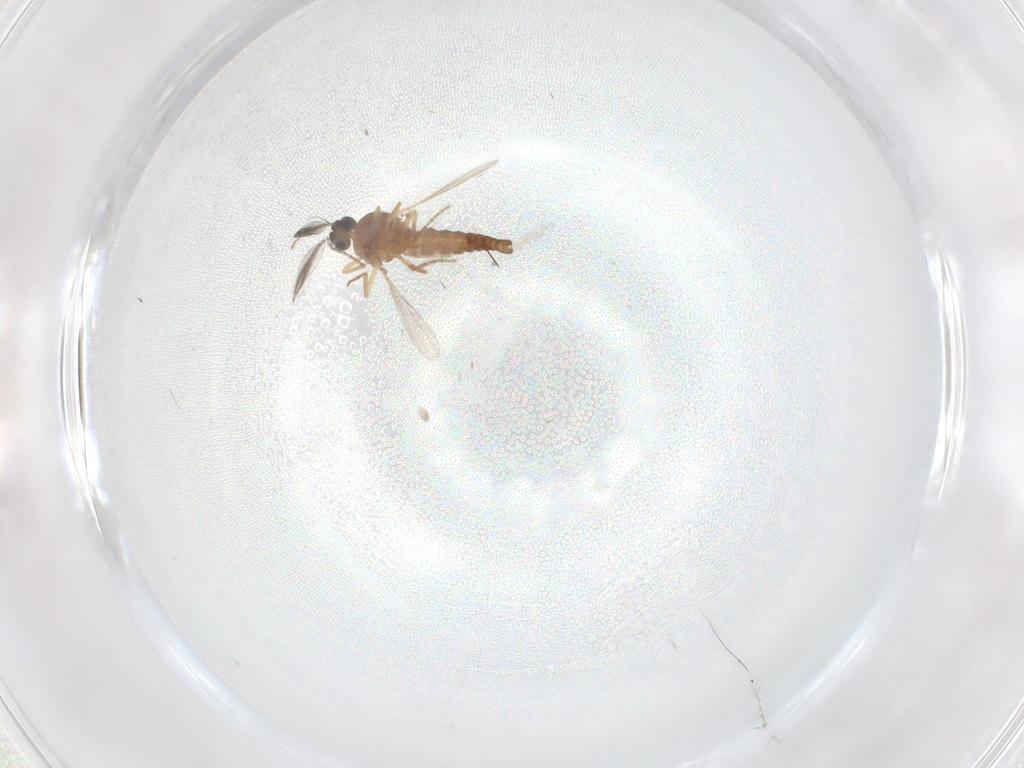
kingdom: Animalia
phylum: Arthropoda
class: Insecta
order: Diptera
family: Ceratopogonidae
